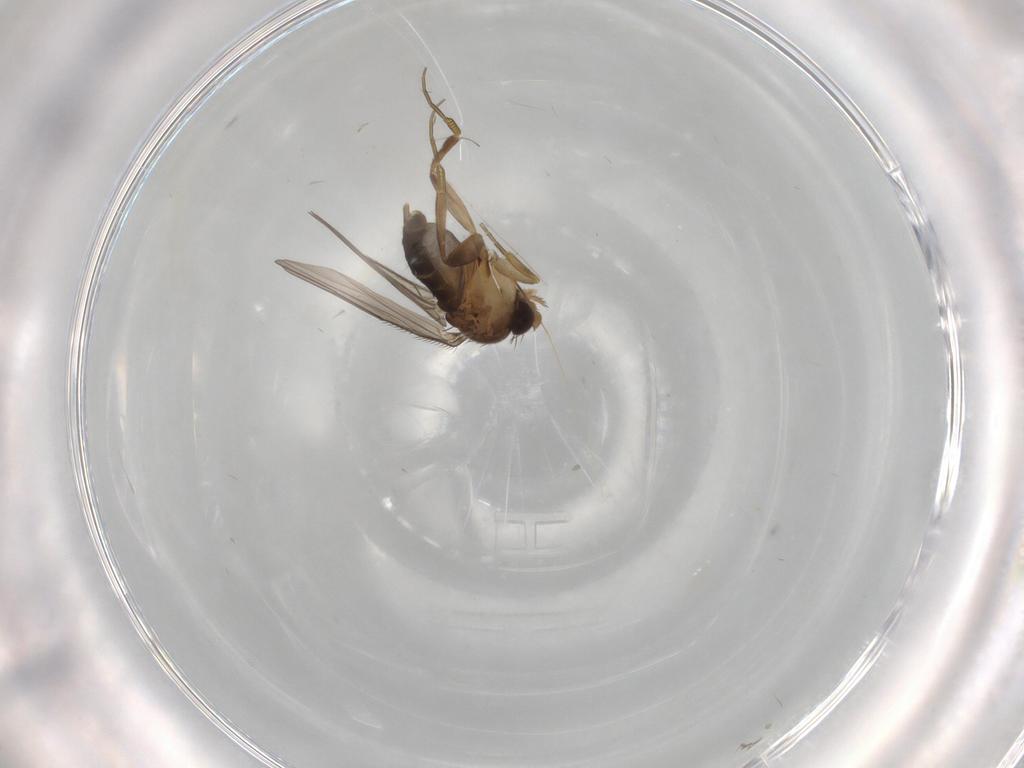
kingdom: Animalia
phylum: Arthropoda
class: Insecta
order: Diptera
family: Phoridae
